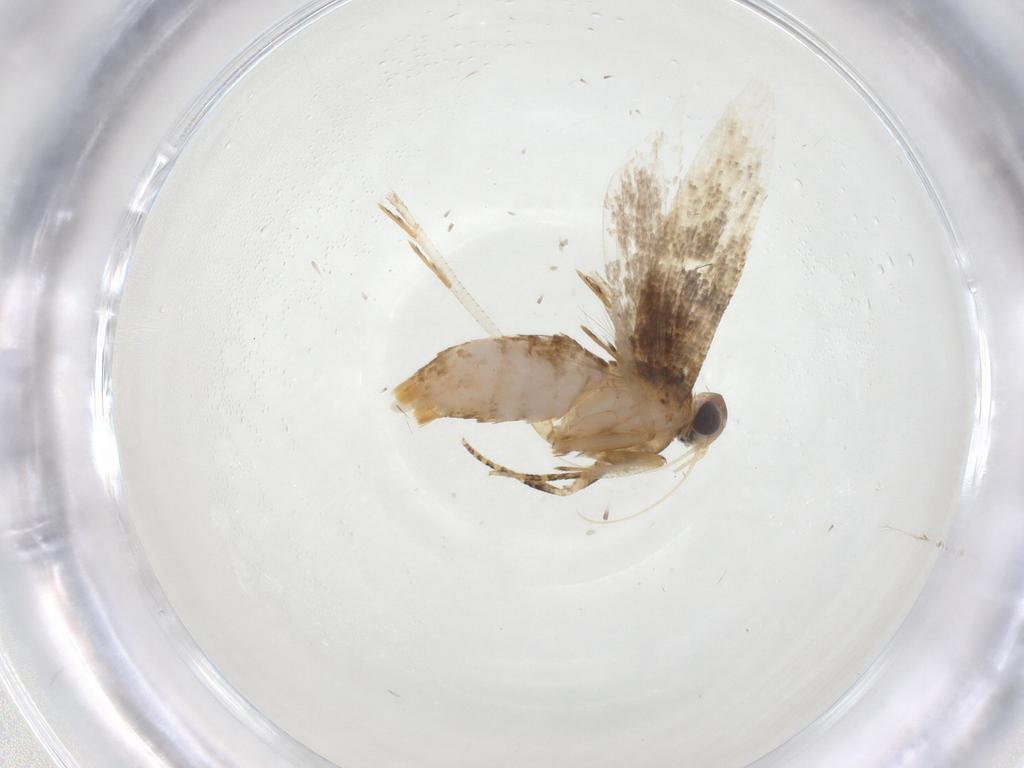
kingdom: Animalia
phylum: Arthropoda
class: Insecta
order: Lepidoptera
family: Gelechiidae
